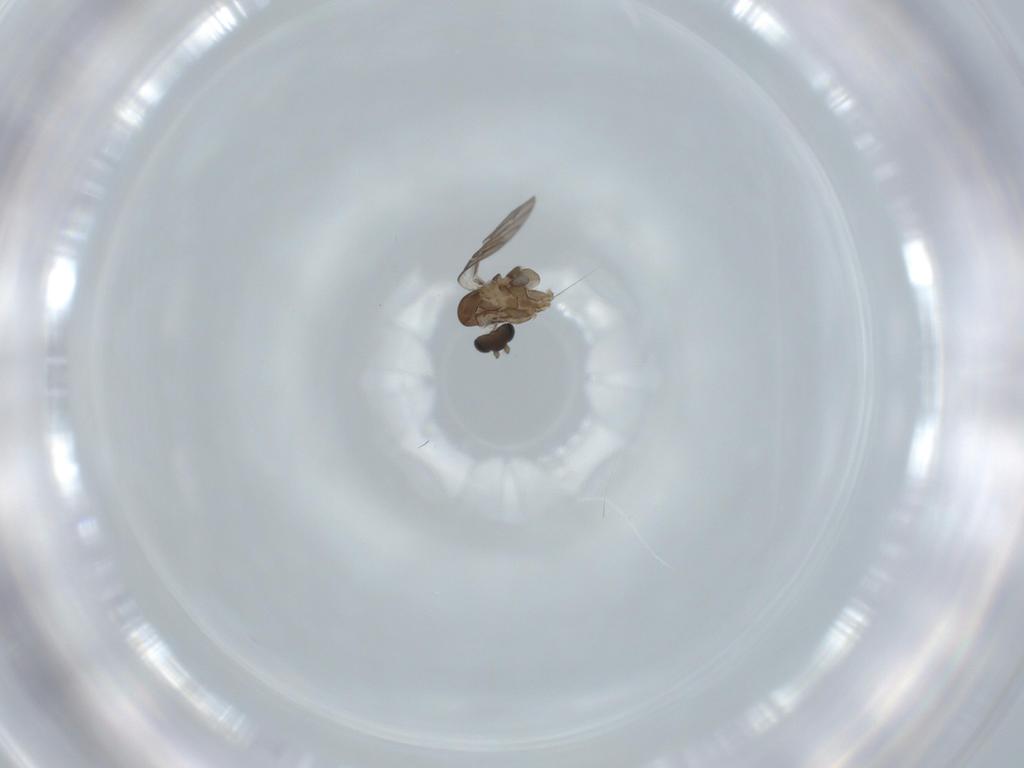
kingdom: Animalia
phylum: Arthropoda
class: Insecta
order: Diptera
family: Psychodidae
